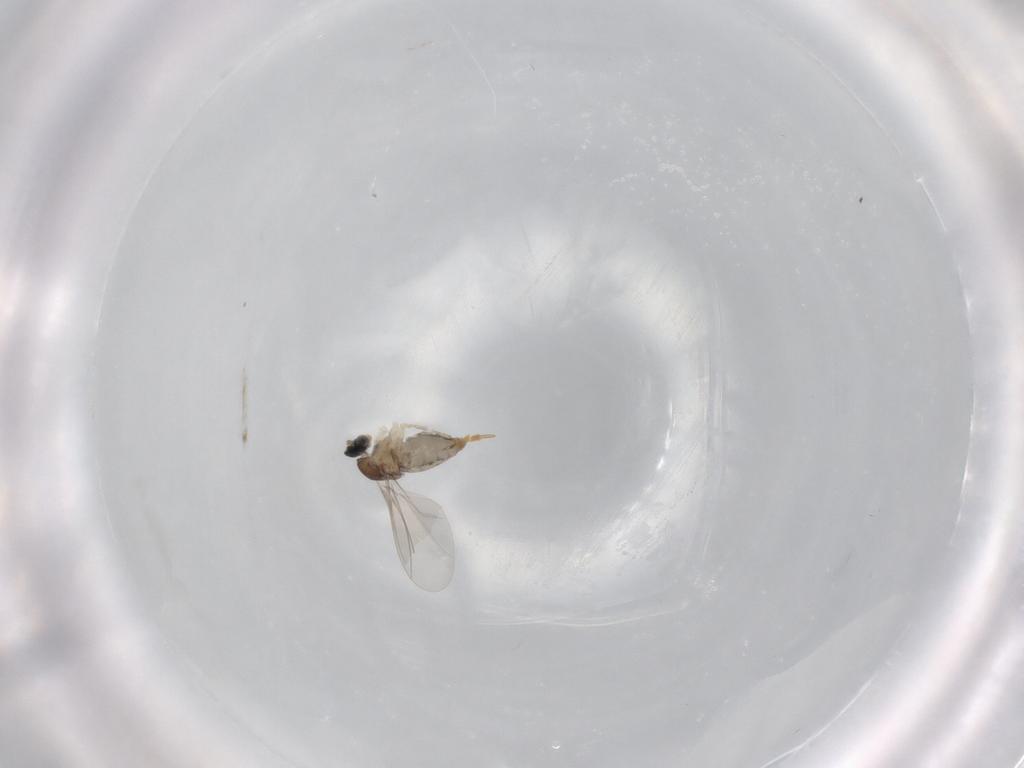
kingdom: Animalia
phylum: Arthropoda
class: Insecta
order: Diptera
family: Cecidomyiidae
